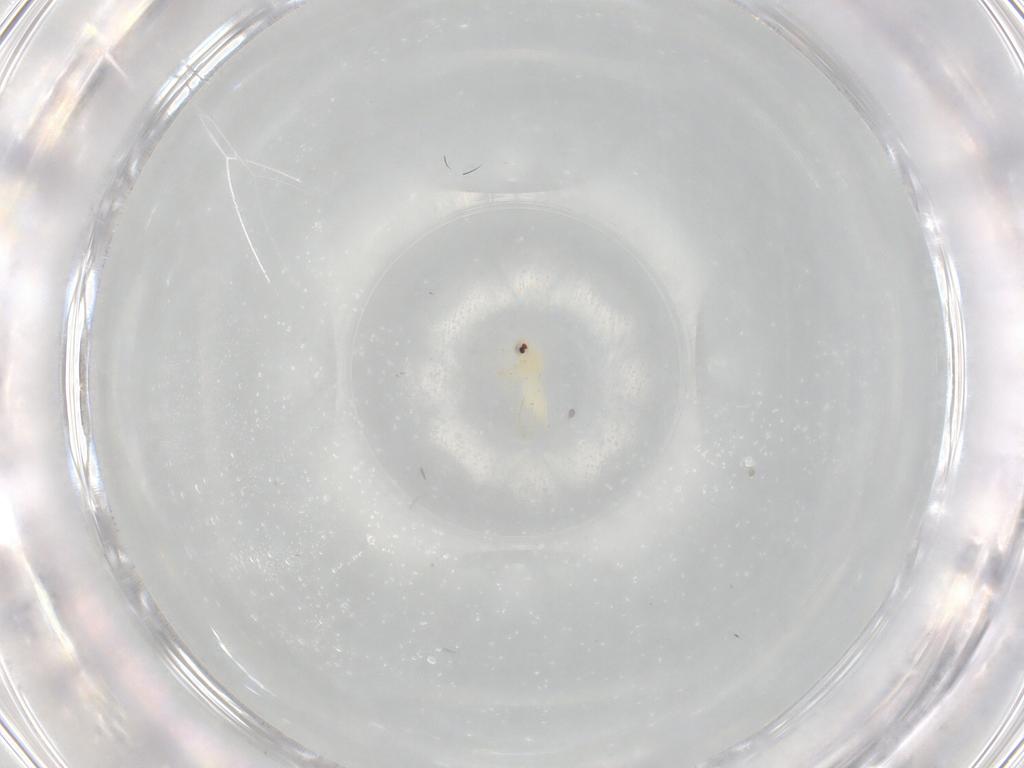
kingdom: Animalia
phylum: Arthropoda
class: Insecta
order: Hemiptera
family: Aleyrodidae
